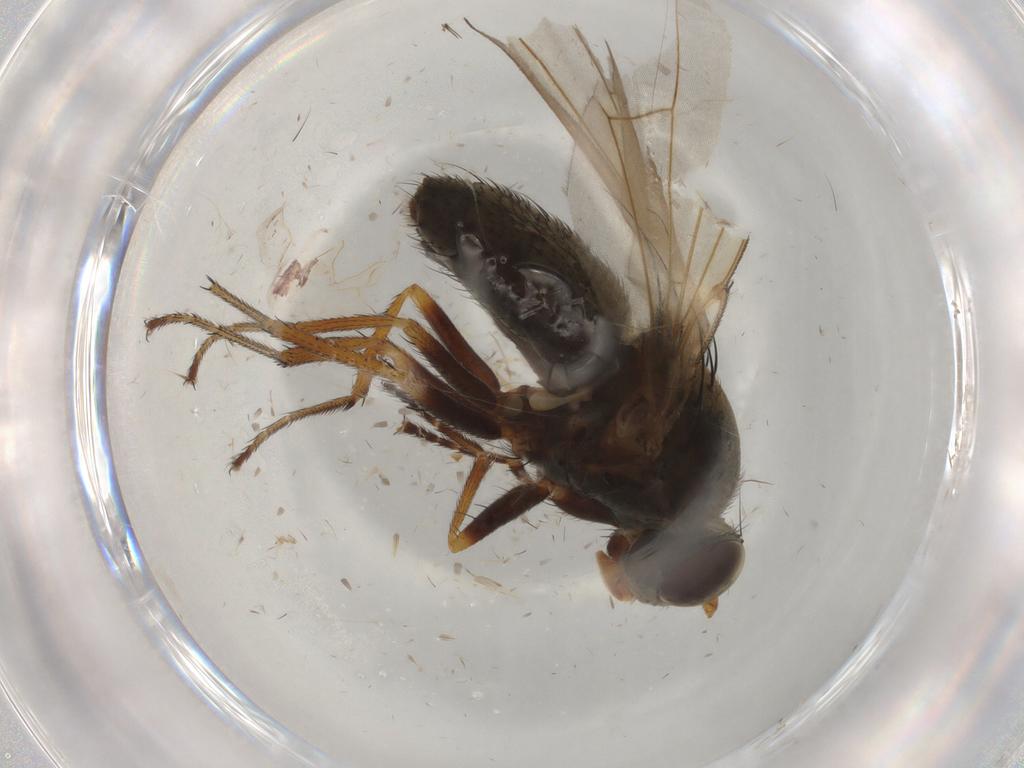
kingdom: Animalia
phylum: Arthropoda
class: Insecta
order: Diptera
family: Ephydridae
